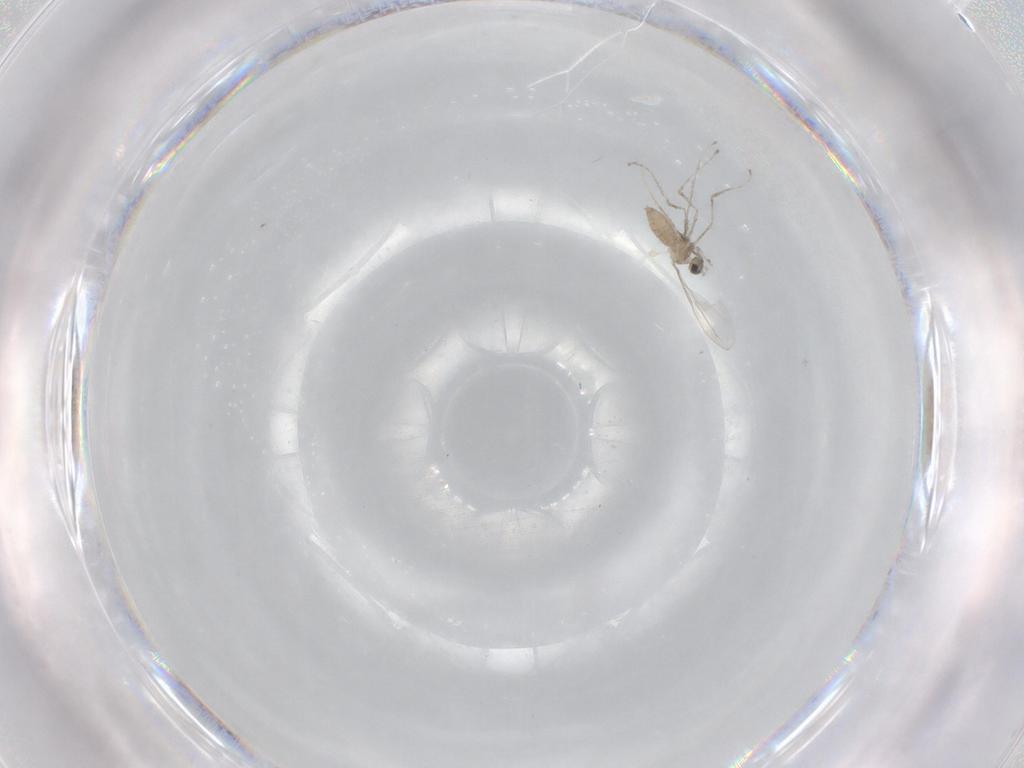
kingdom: Animalia
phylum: Arthropoda
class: Insecta
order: Diptera
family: Cecidomyiidae
